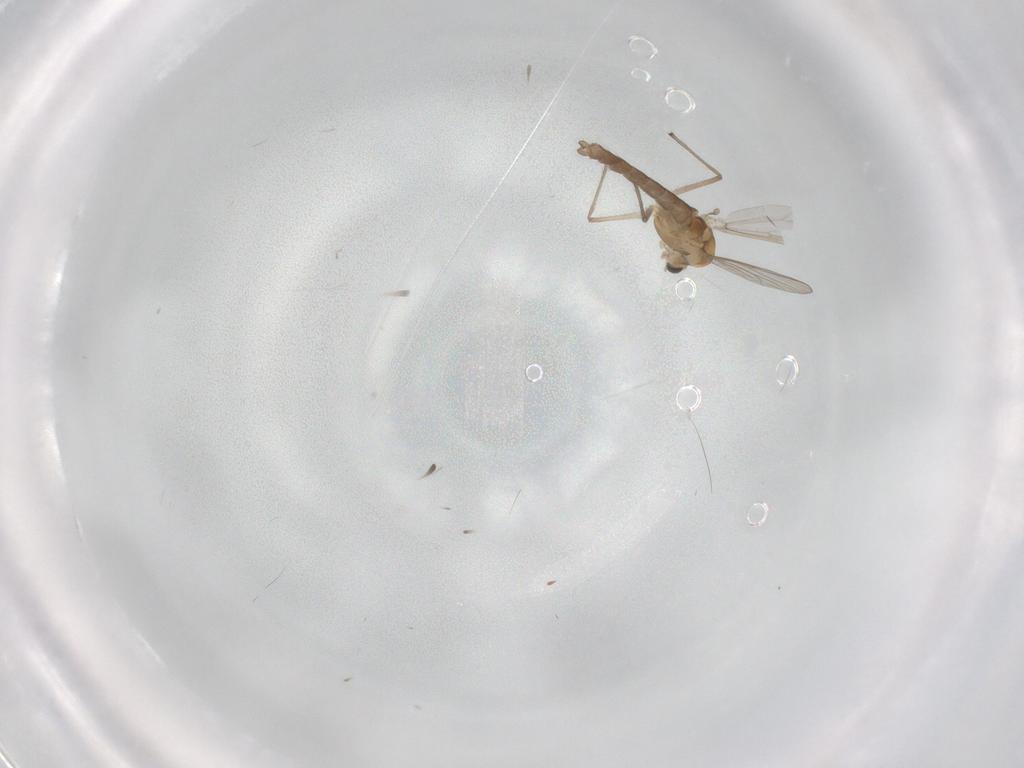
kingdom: Animalia
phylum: Arthropoda
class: Insecta
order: Diptera
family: Chironomidae
